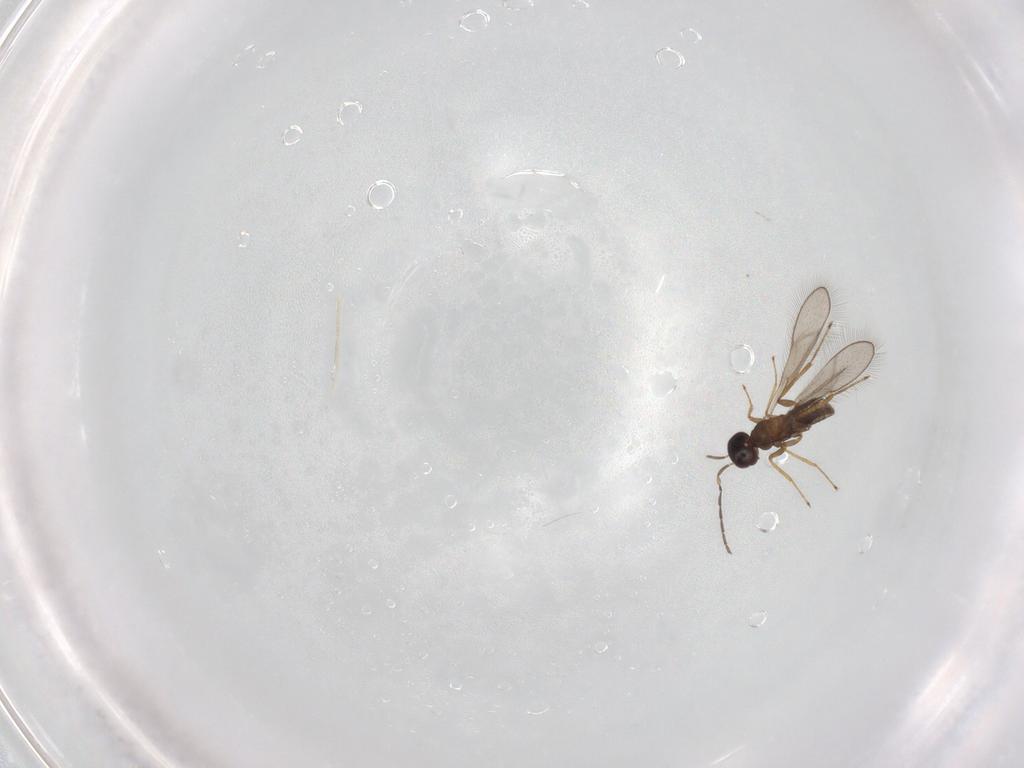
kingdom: Animalia
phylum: Arthropoda
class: Insecta
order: Hymenoptera
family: Mymaridae
